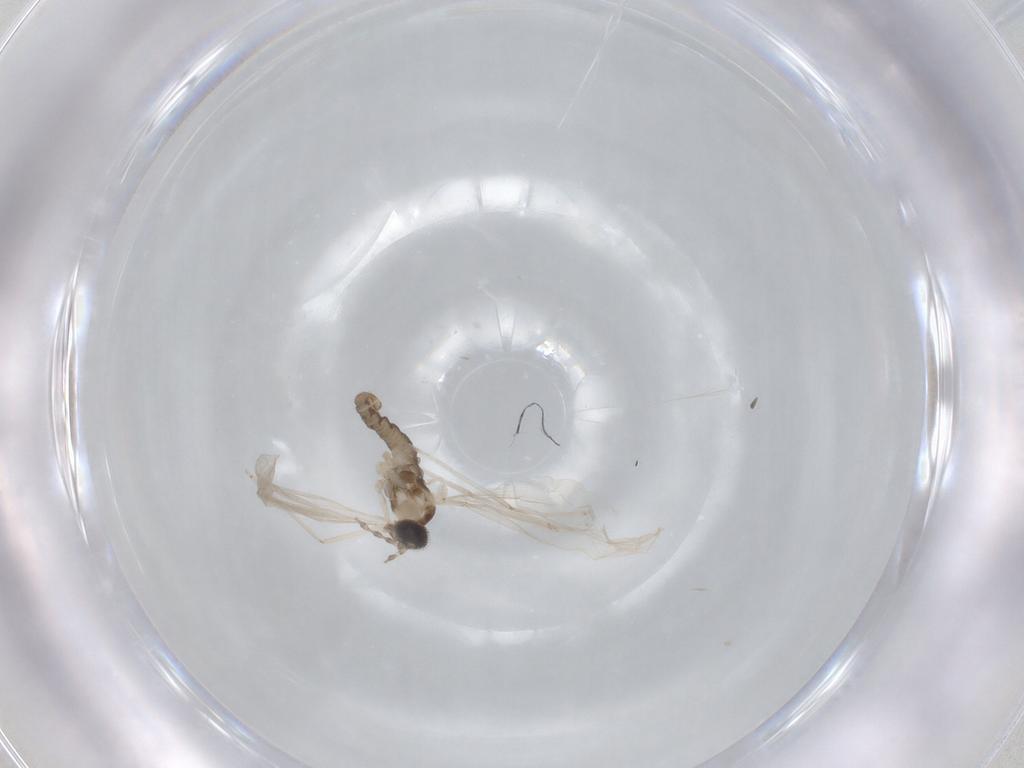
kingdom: Animalia
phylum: Arthropoda
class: Insecta
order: Diptera
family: Cecidomyiidae
